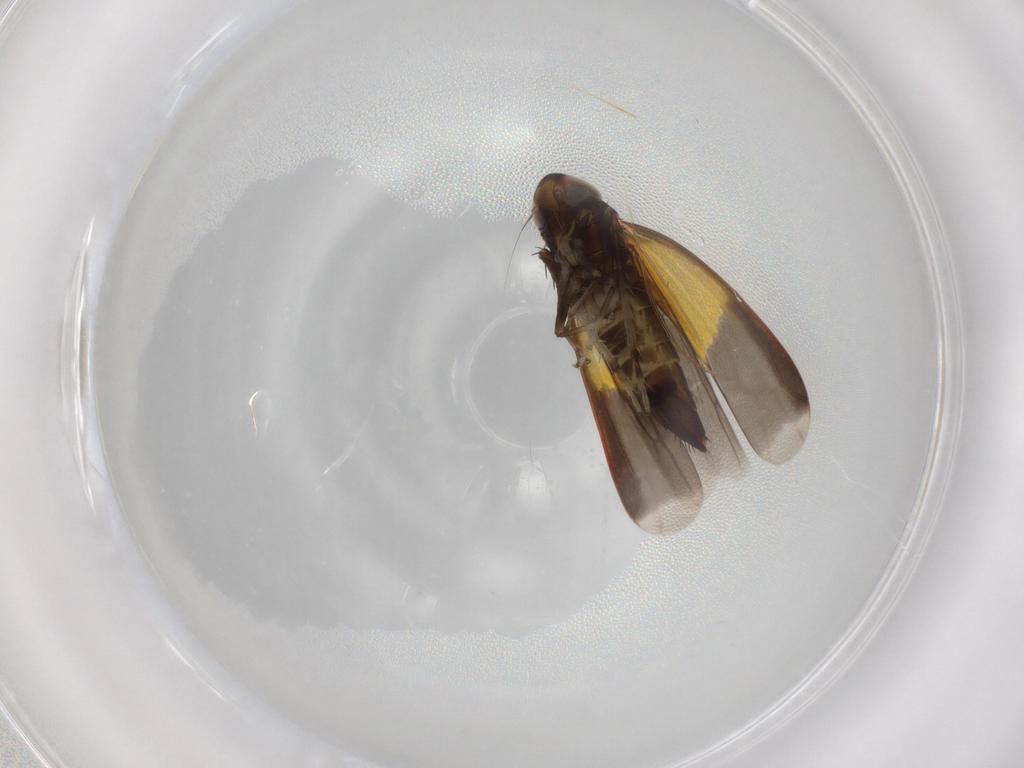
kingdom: Animalia
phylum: Arthropoda
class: Insecta
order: Hemiptera
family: Cicadellidae
